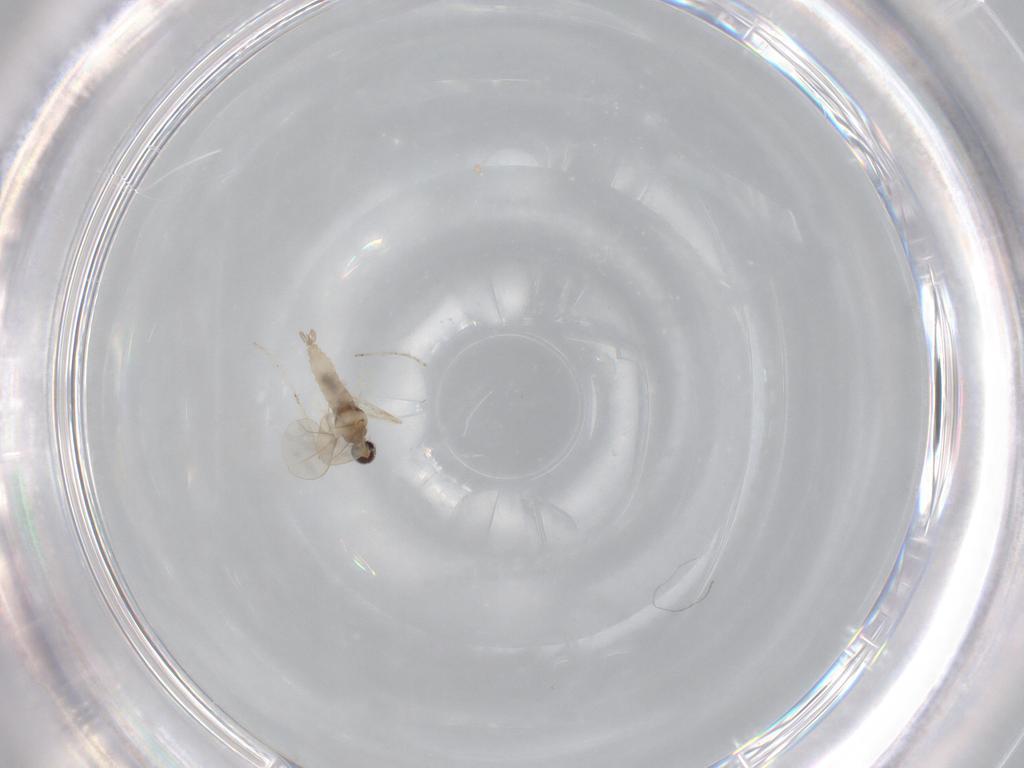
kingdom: Animalia
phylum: Arthropoda
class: Insecta
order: Diptera
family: Cecidomyiidae
